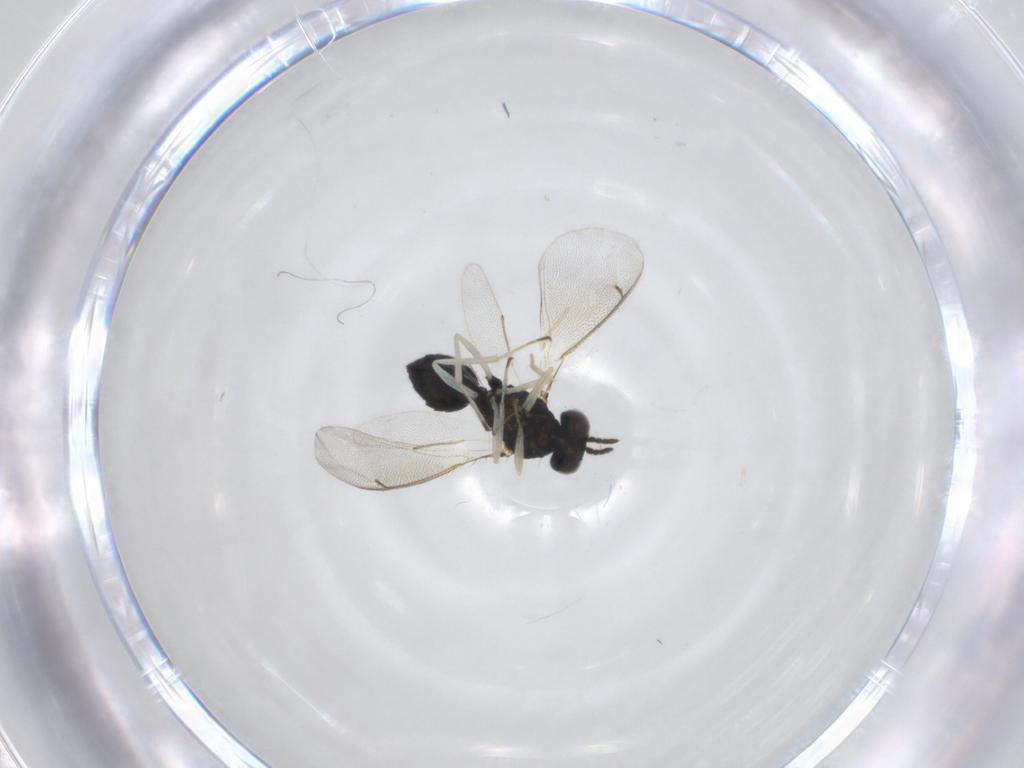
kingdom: Animalia
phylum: Arthropoda
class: Insecta
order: Hymenoptera
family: Eulophidae
